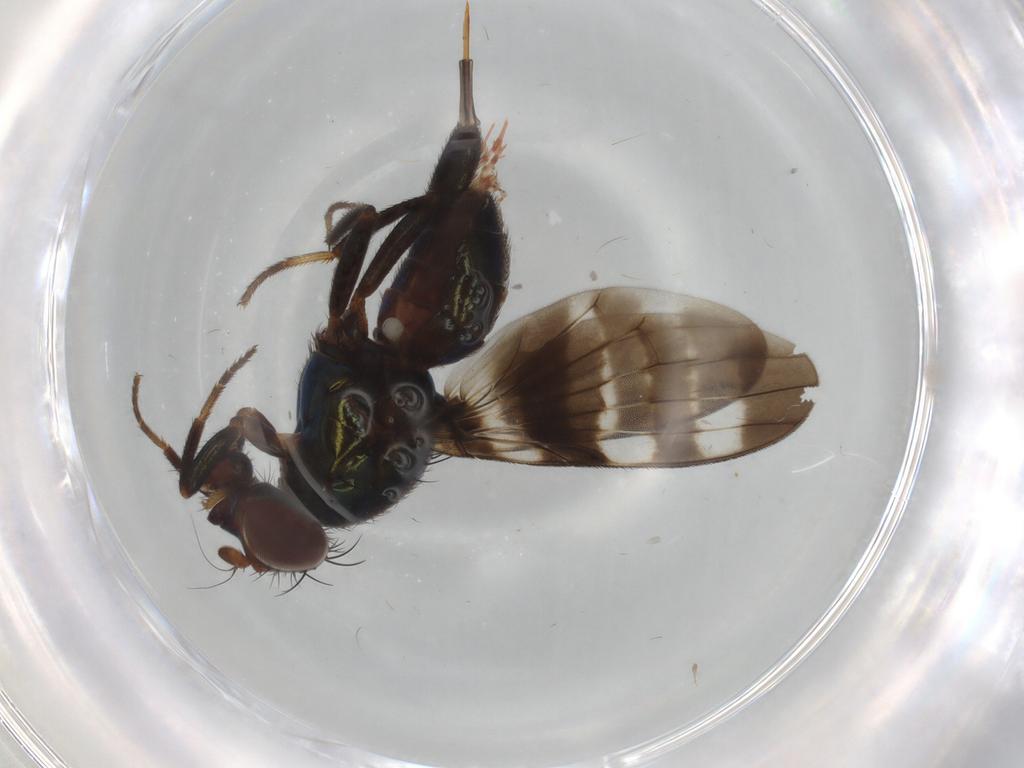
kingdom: Animalia
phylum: Arthropoda
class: Insecta
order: Diptera
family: Ulidiidae
